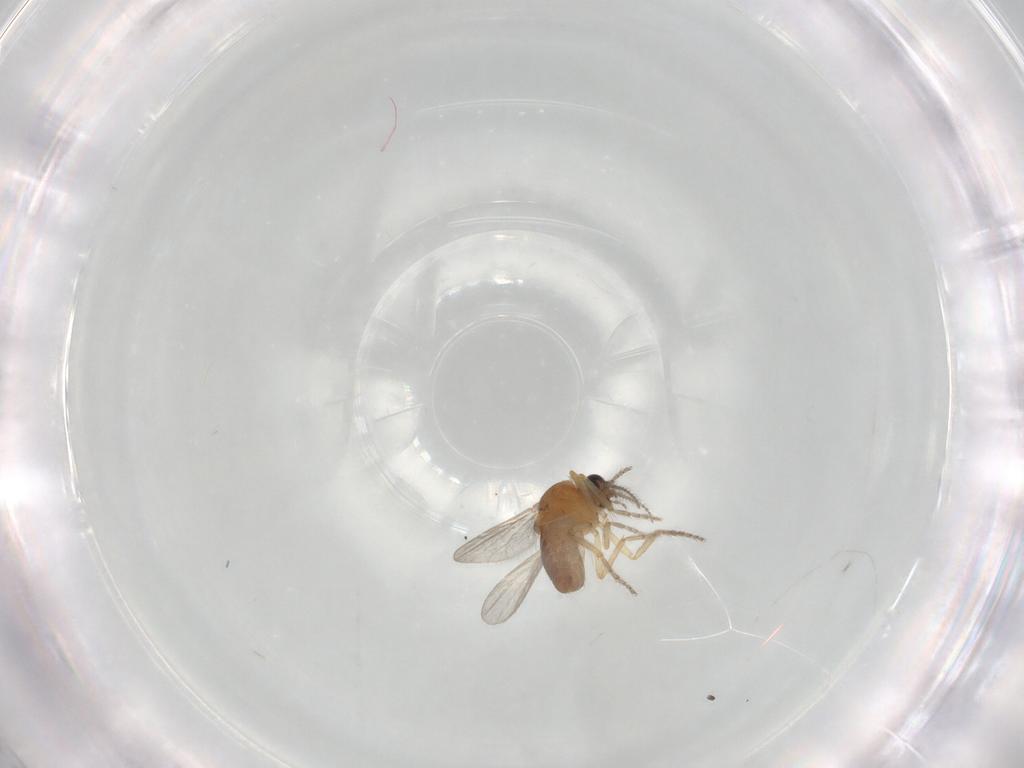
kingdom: Animalia
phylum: Arthropoda
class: Insecta
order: Diptera
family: Ceratopogonidae
